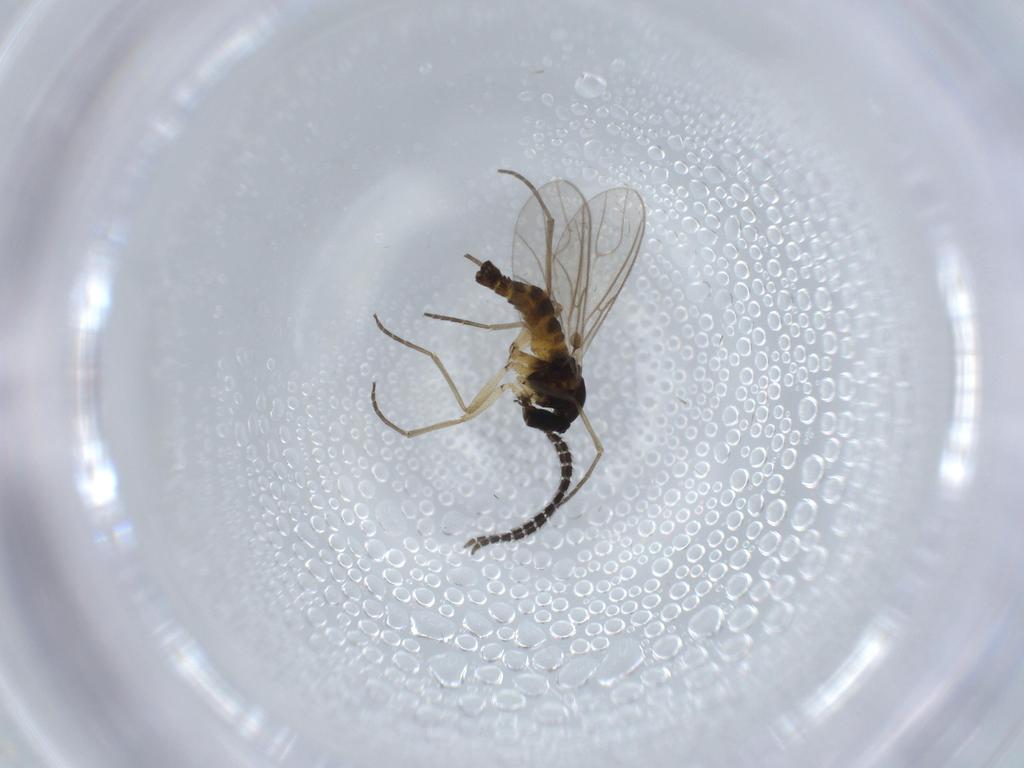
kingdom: Animalia
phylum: Arthropoda
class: Insecta
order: Diptera
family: Sciaridae
